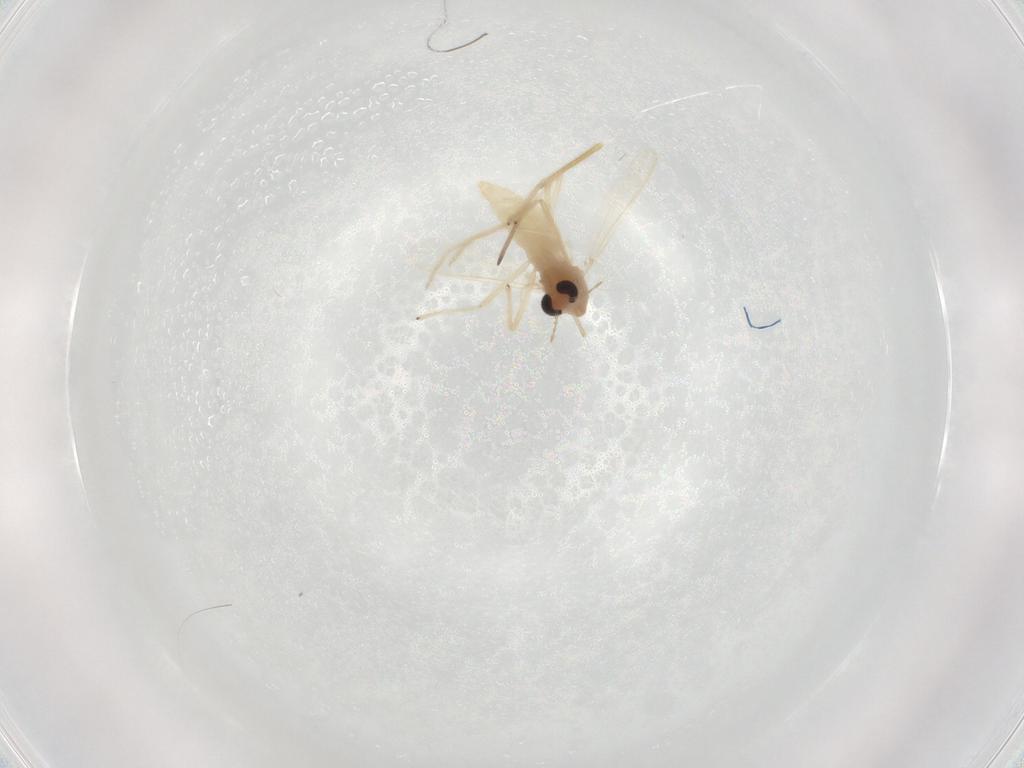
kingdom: Animalia
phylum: Arthropoda
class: Insecta
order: Diptera
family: Chironomidae
